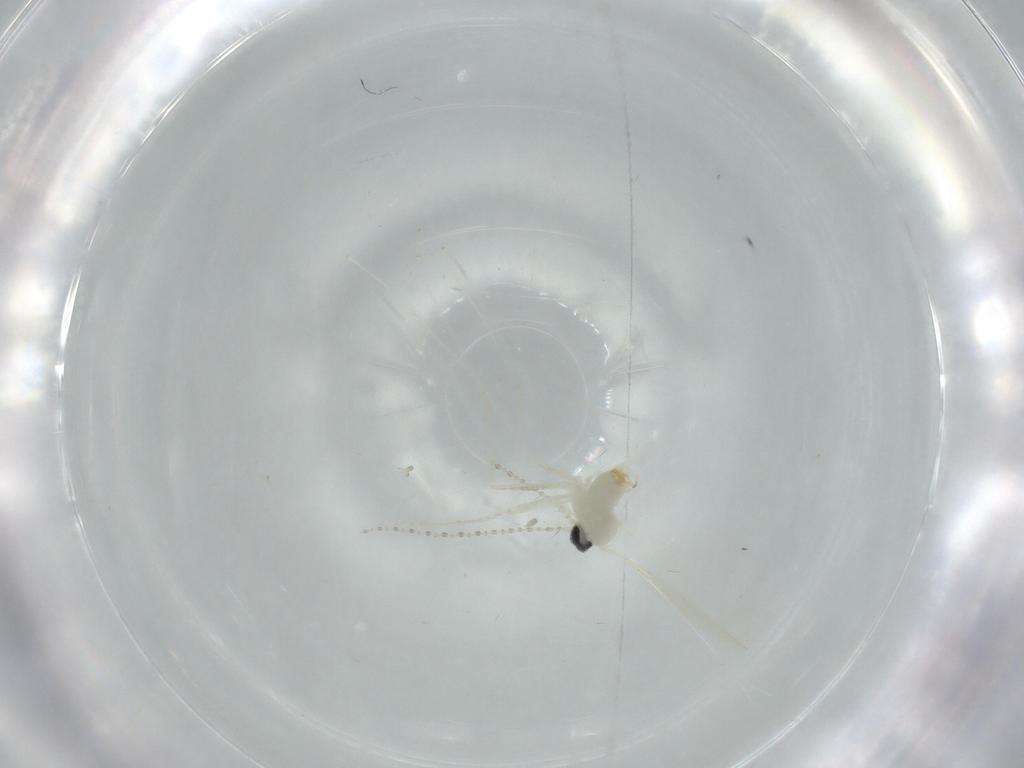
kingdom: Animalia
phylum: Arthropoda
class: Insecta
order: Diptera
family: Cecidomyiidae
